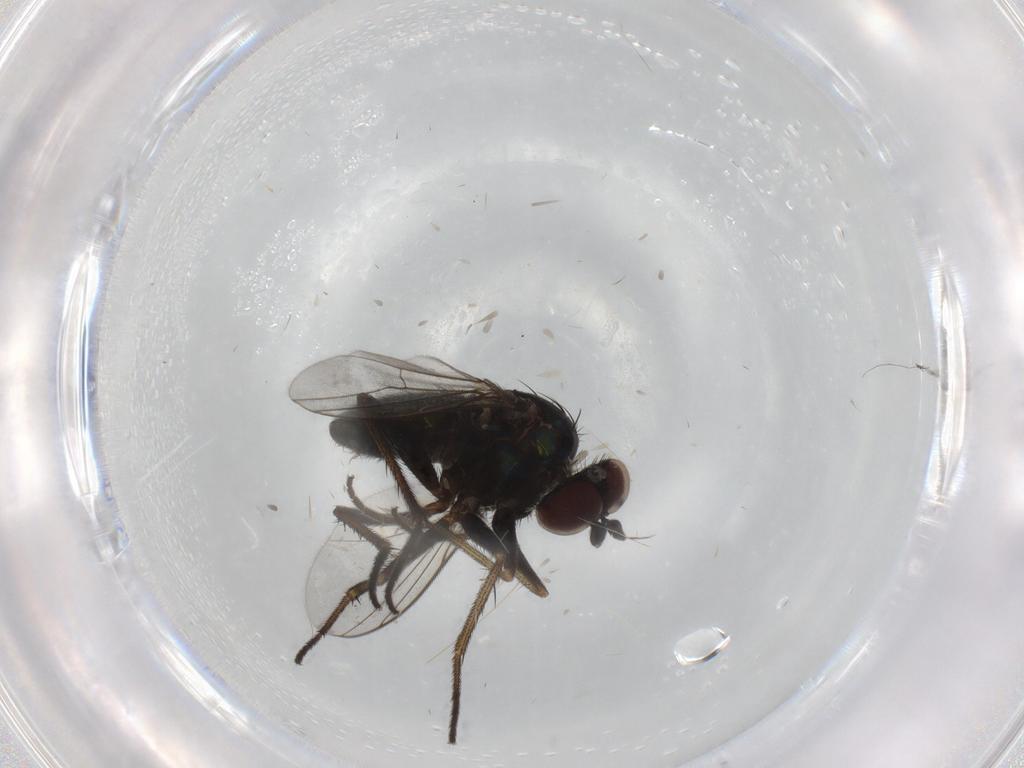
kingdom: Animalia
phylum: Arthropoda
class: Insecta
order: Diptera
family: Dolichopodidae
